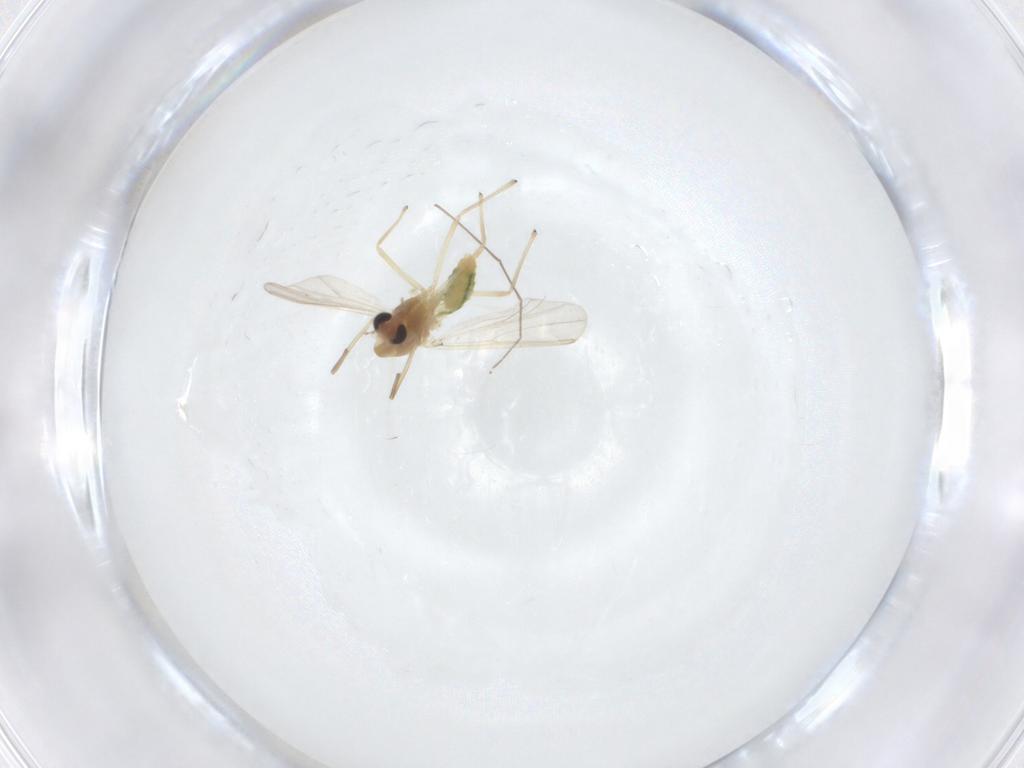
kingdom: Animalia
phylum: Arthropoda
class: Insecta
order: Diptera
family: Chironomidae
